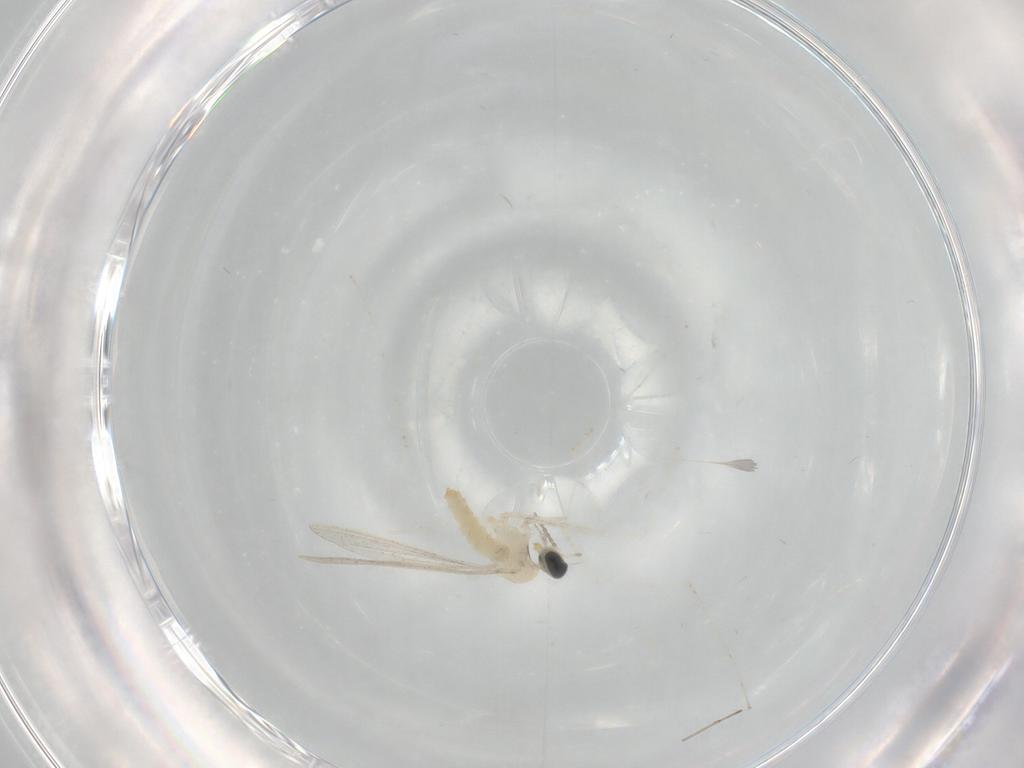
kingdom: Animalia
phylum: Arthropoda
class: Insecta
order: Diptera
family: Cecidomyiidae
